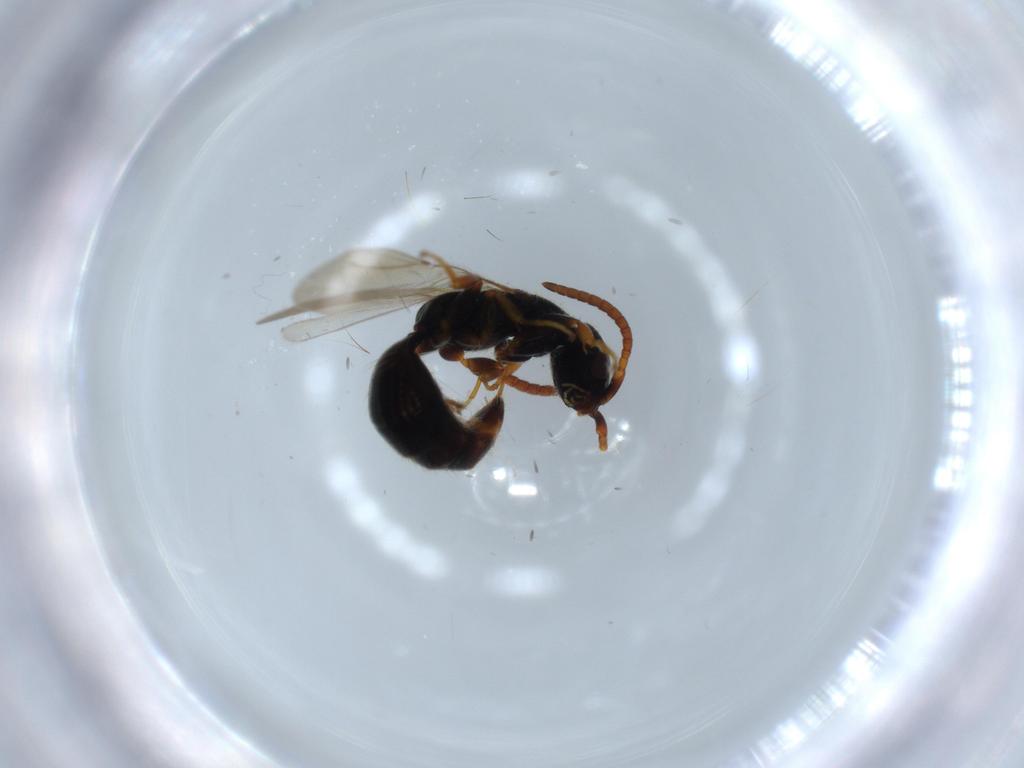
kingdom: Animalia
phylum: Arthropoda
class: Insecta
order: Hymenoptera
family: Bethylidae
